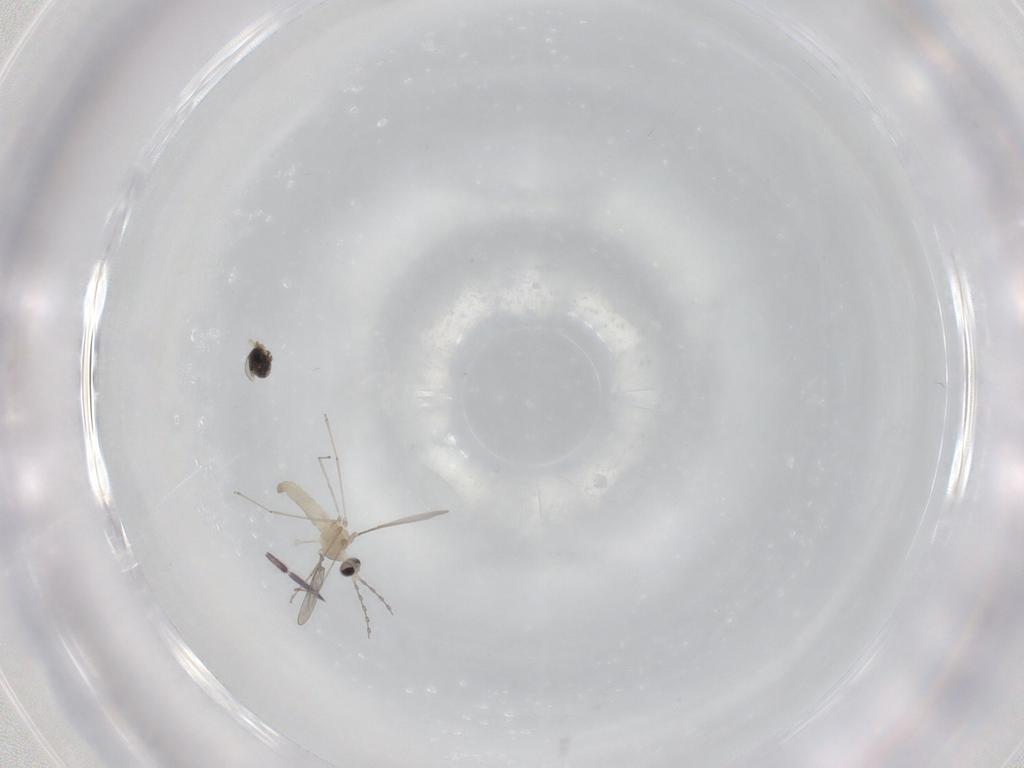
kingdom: Animalia
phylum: Arthropoda
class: Insecta
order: Diptera
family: Cecidomyiidae
